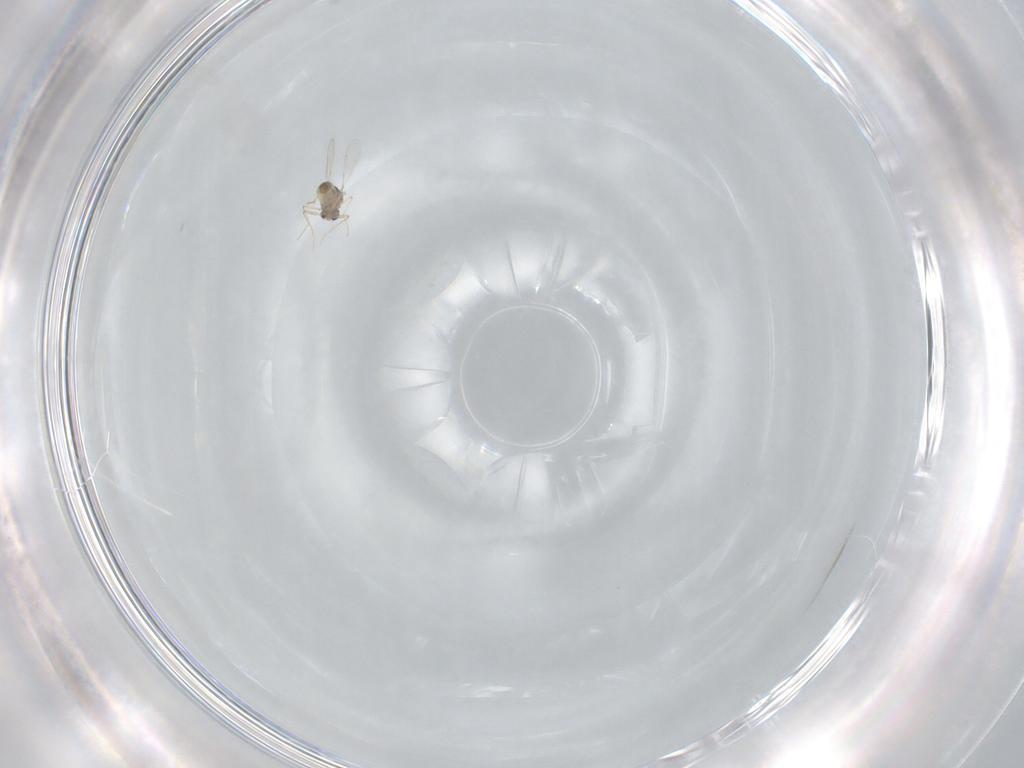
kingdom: Animalia
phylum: Arthropoda
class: Insecta
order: Diptera
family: Chironomidae
